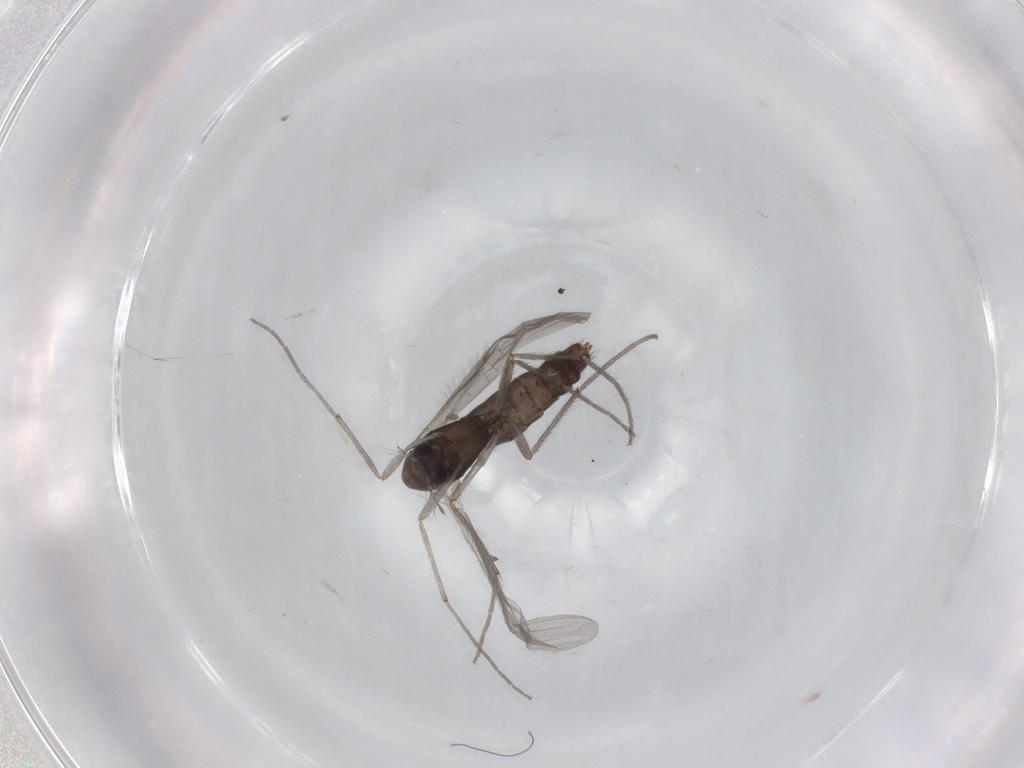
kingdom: Animalia
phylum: Arthropoda
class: Insecta
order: Diptera
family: Chironomidae
